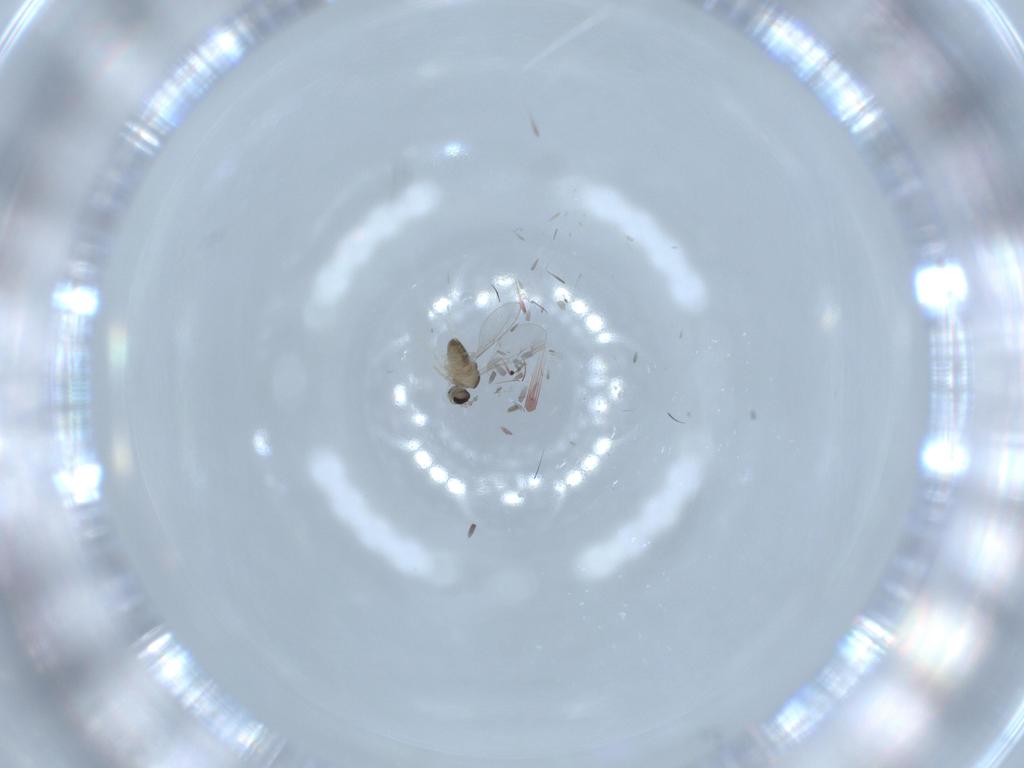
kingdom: Animalia
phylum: Arthropoda
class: Insecta
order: Diptera
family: Cecidomyiidae
